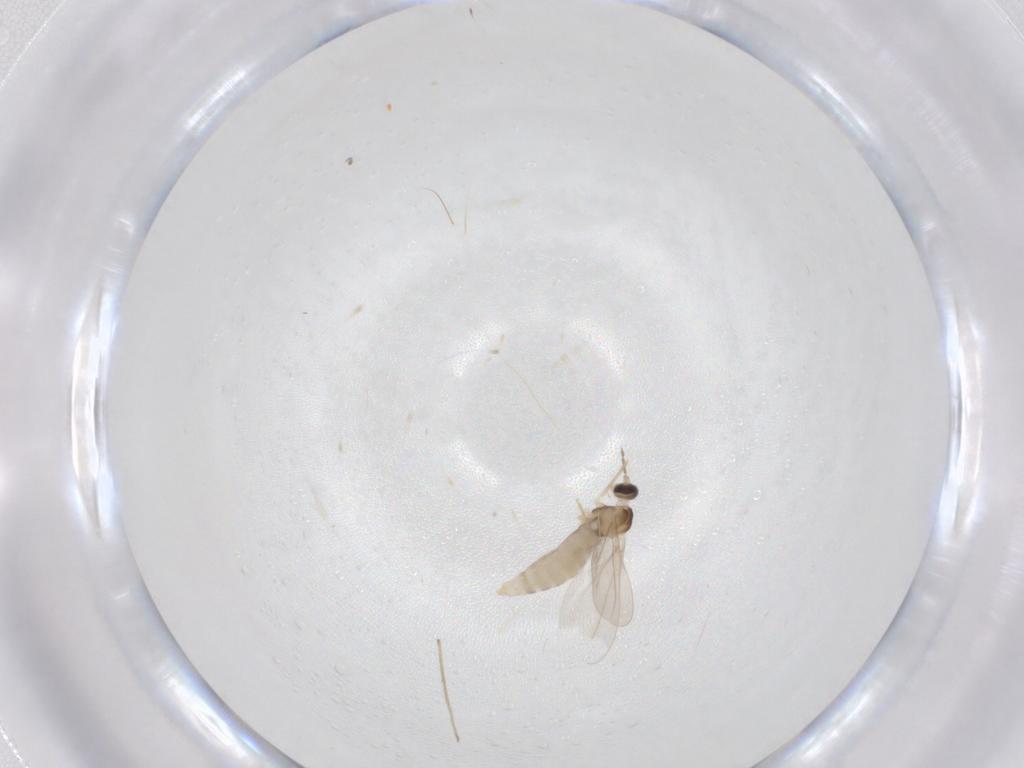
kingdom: Animalia
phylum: Arthropoda
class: Insecta
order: Diptera
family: Cecidomyiidae
